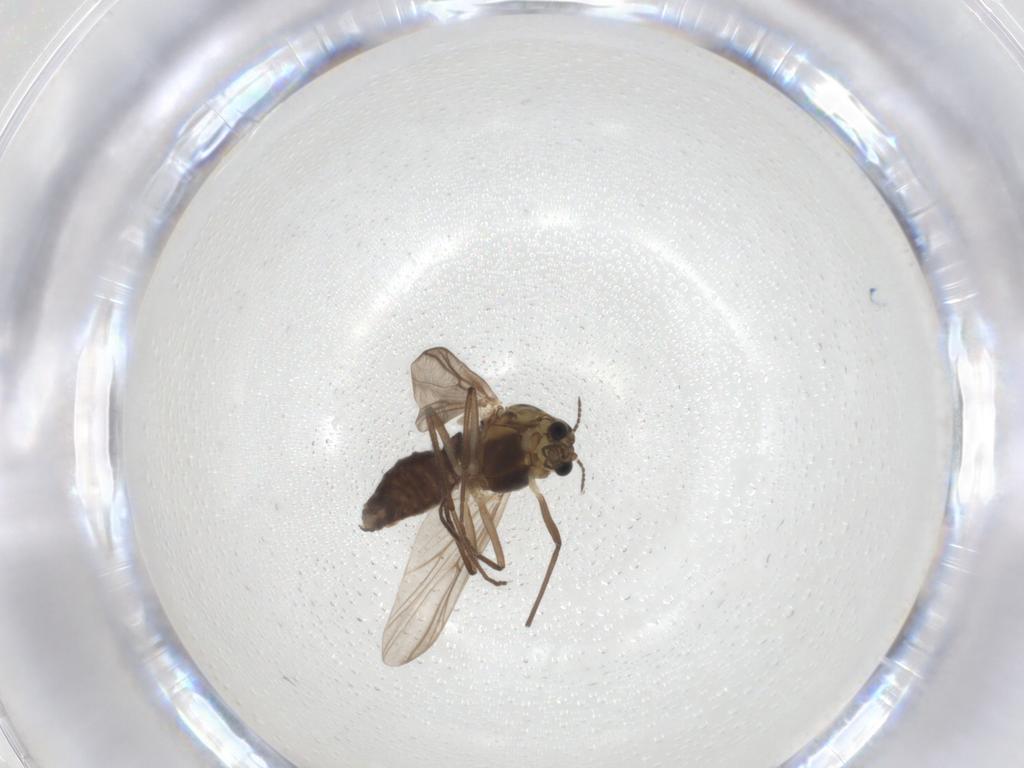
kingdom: Animalia
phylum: Arthropoda
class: Insecta
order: Diptera
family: Chironomidae
